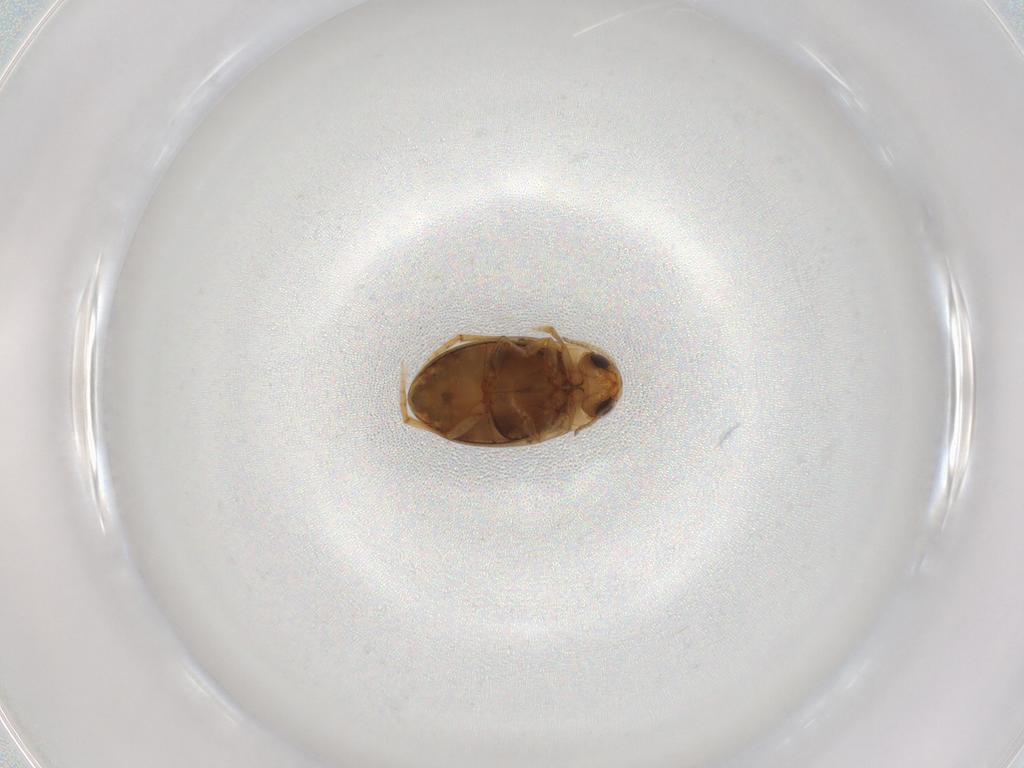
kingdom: Animalia
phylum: Arthropoda
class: Insecta
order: Coleoptera
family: Dytiscidae
